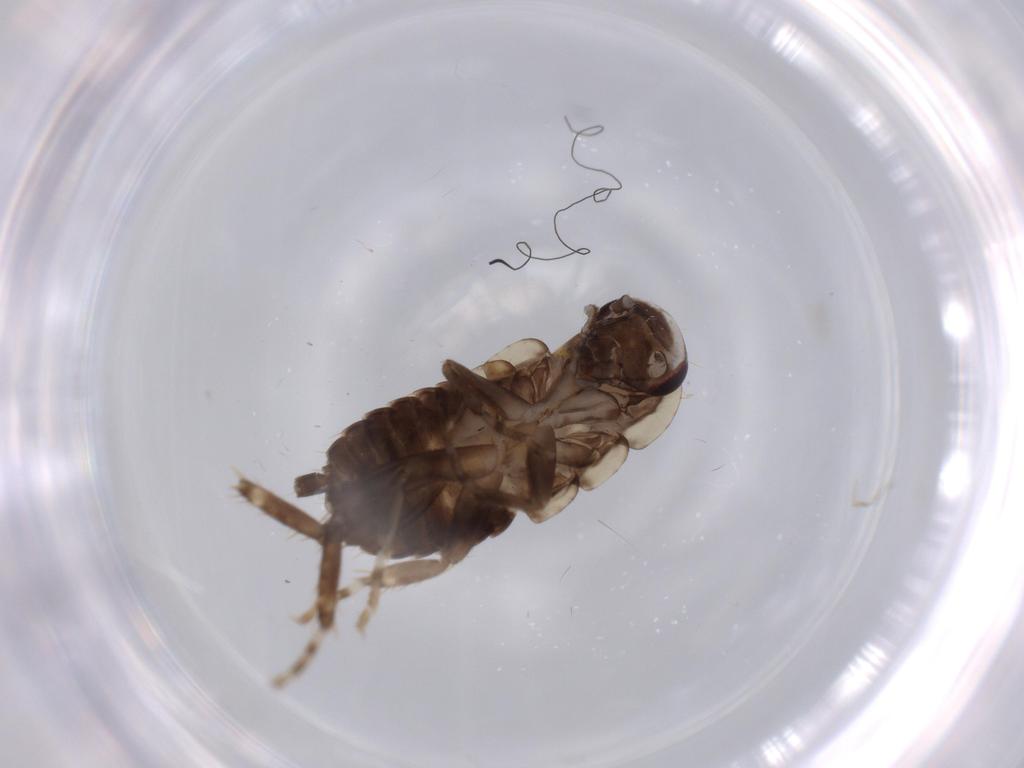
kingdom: Animalia
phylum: Arthropoda
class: Insecta
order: Blattodea
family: Ectobiidae
